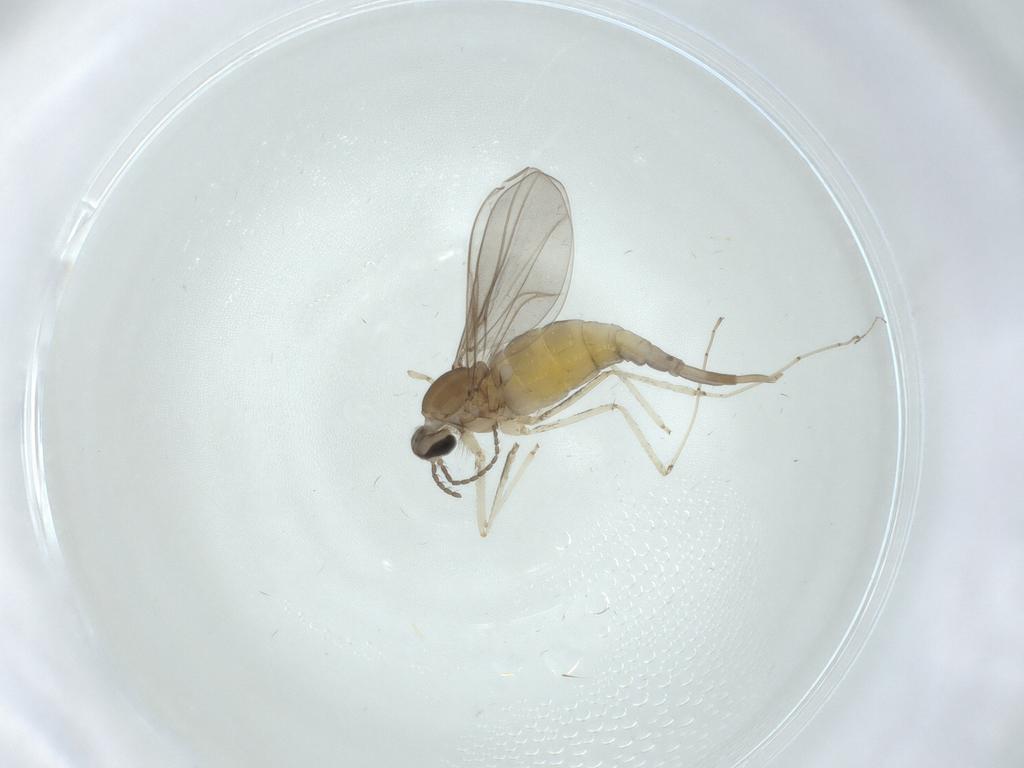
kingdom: Animalia
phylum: Arthropoda
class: Insecta
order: Diptera
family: Cecidomyiidae
